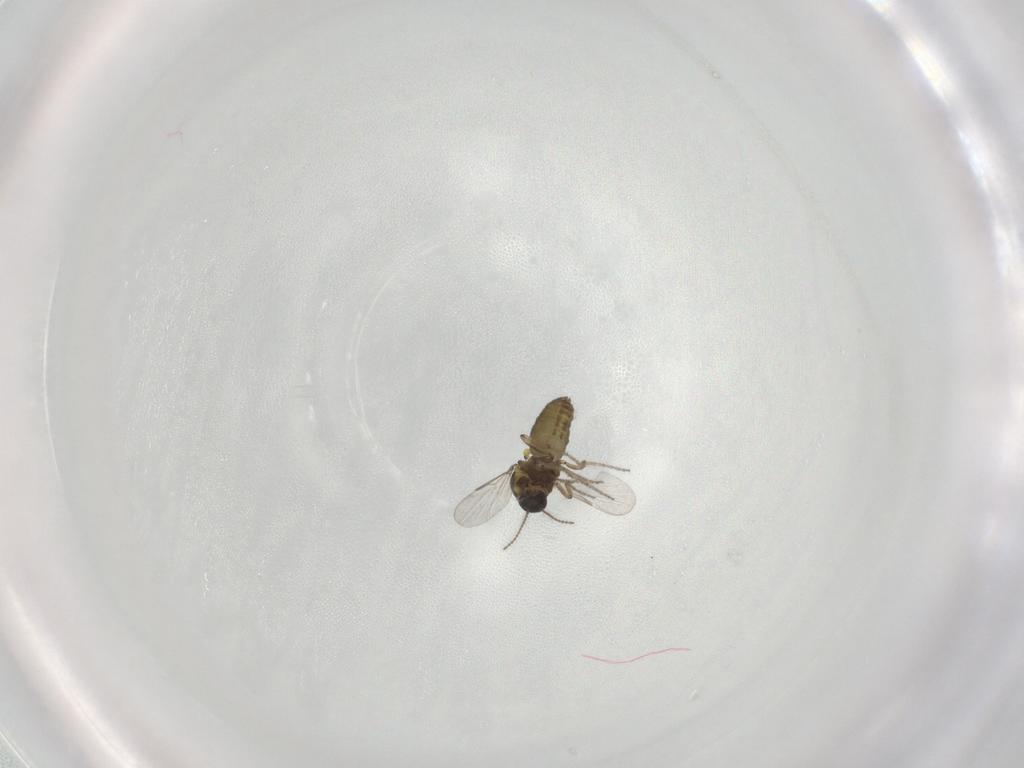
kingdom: Animalia
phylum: Arthropoda
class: Insecta
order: Diptera
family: Ceratopogonidae
